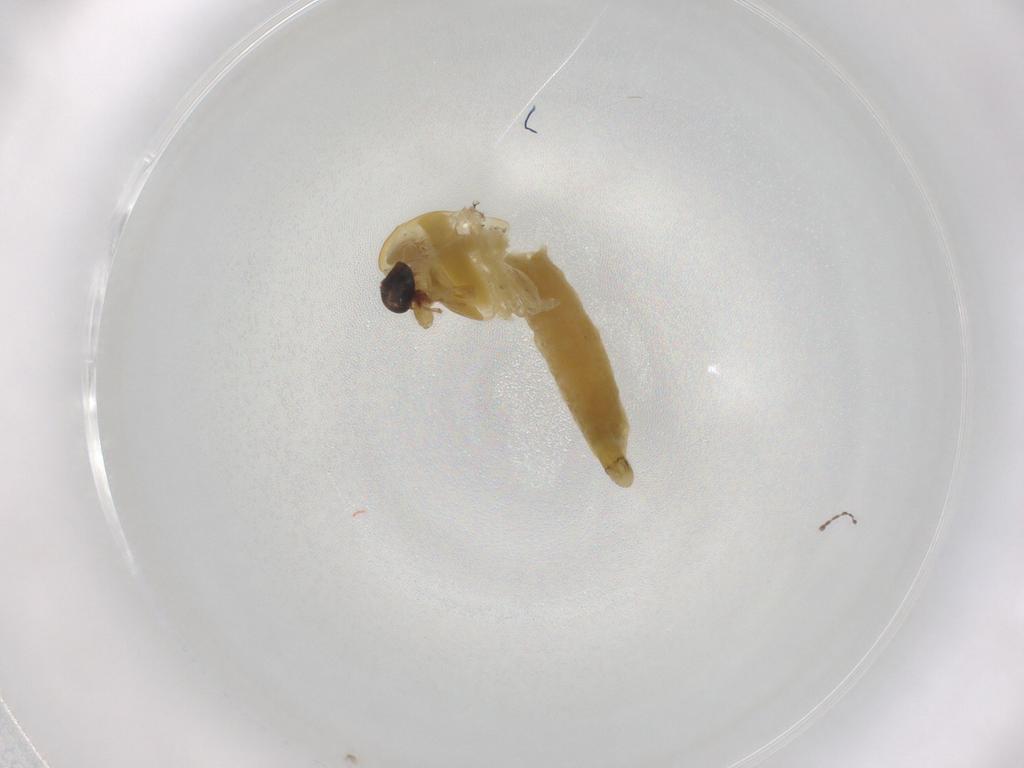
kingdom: Animalia
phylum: Arthropoda
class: Insecta
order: Diptera
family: Chironomidae
